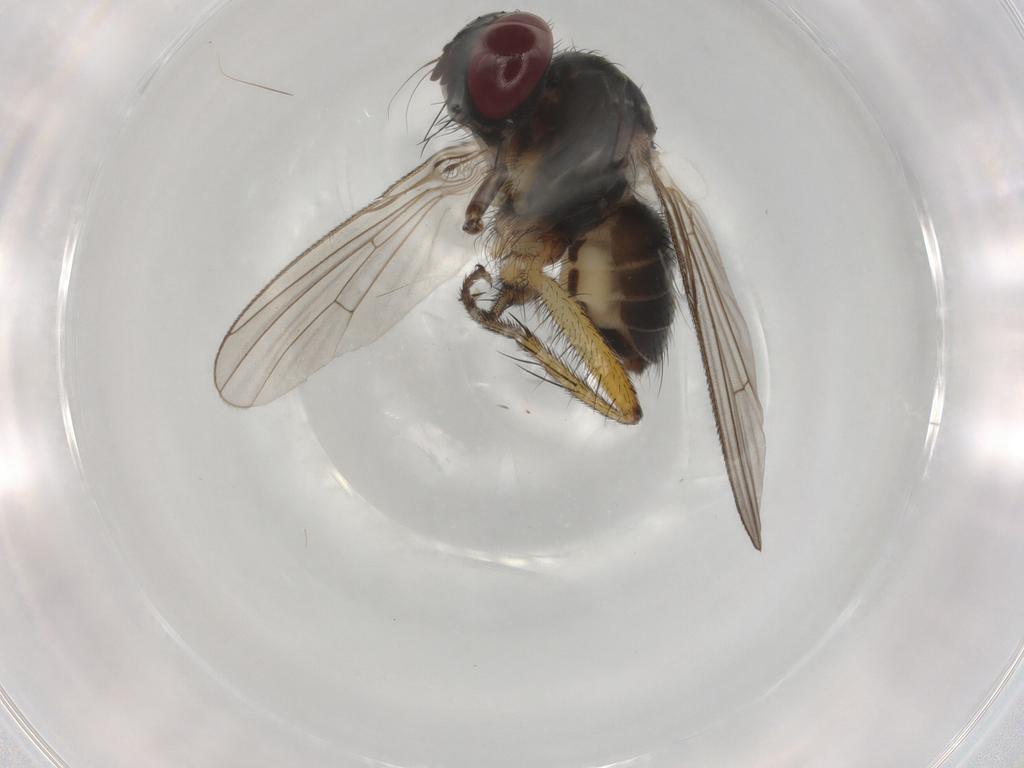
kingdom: Animalia
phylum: Arthropoda
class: Insecta
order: Diptera
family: Muscidae
